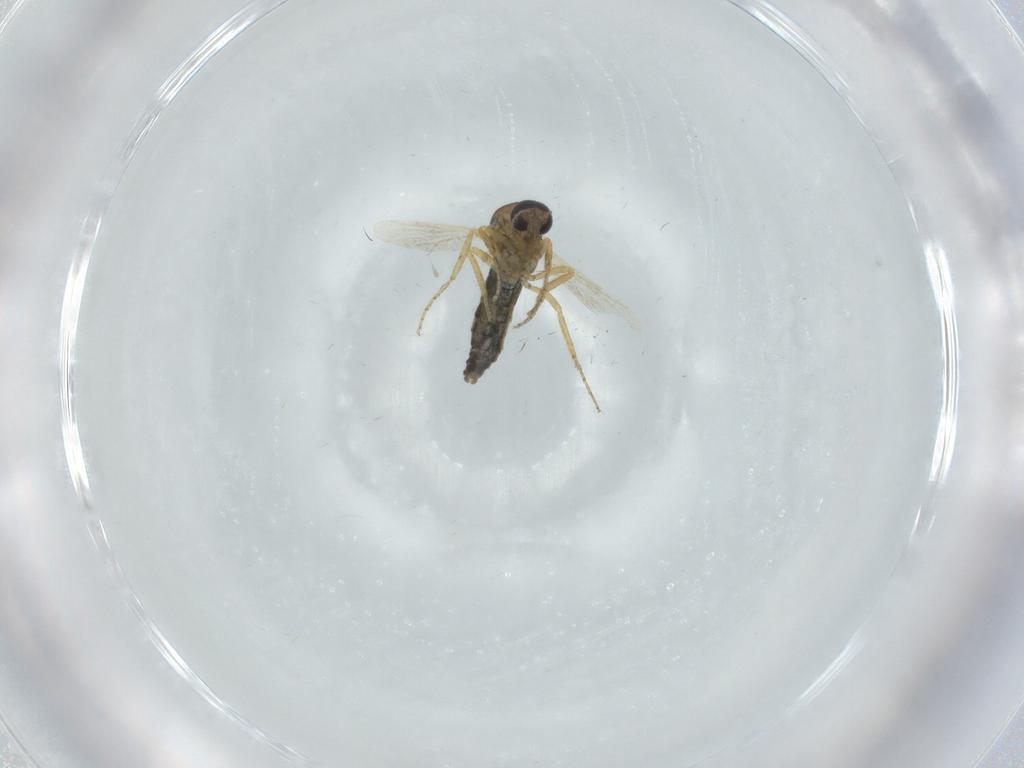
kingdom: Animalia
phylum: Arthropoda
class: Insecta
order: Diptera
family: Ceratopogonidae
